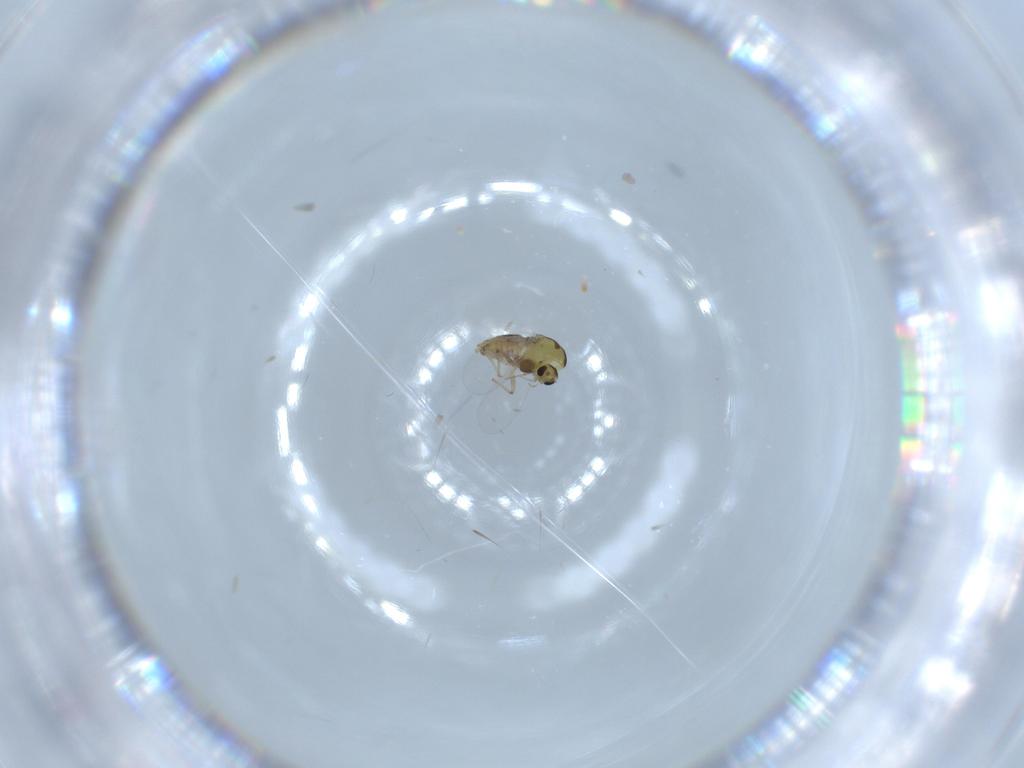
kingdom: Animalia
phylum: Arthropoda
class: Insecta
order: Diptera
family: Chironomidae
